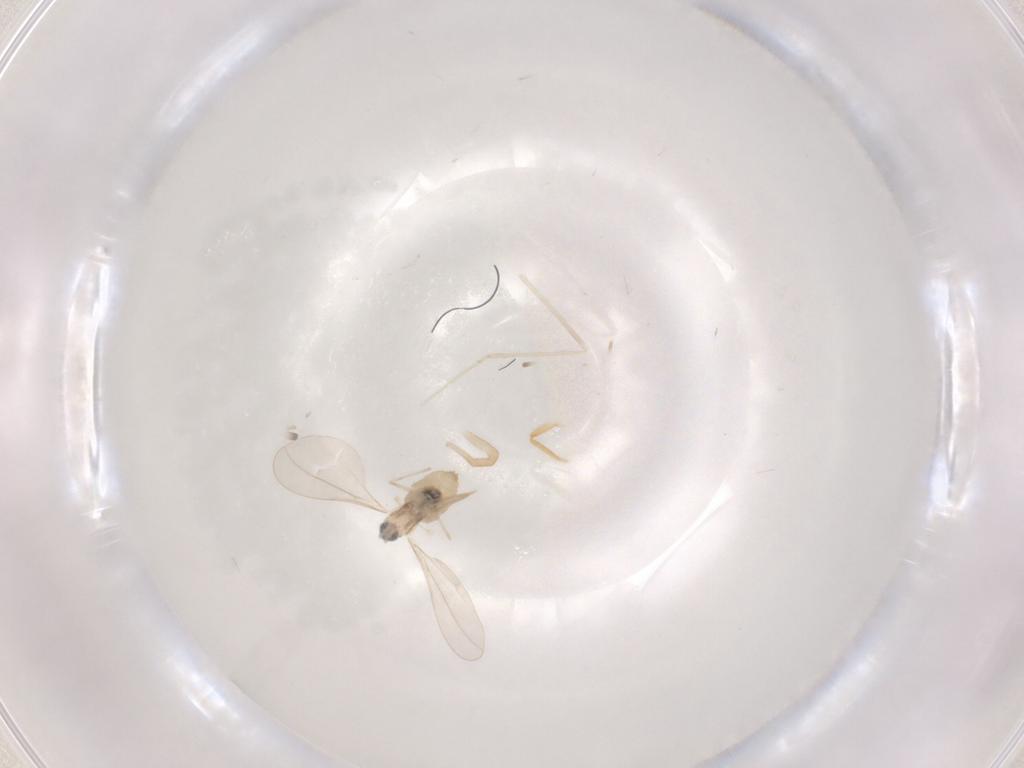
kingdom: Animalia
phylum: Arthropoda
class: Insecta
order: Diptera
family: Cecidomyiidae
